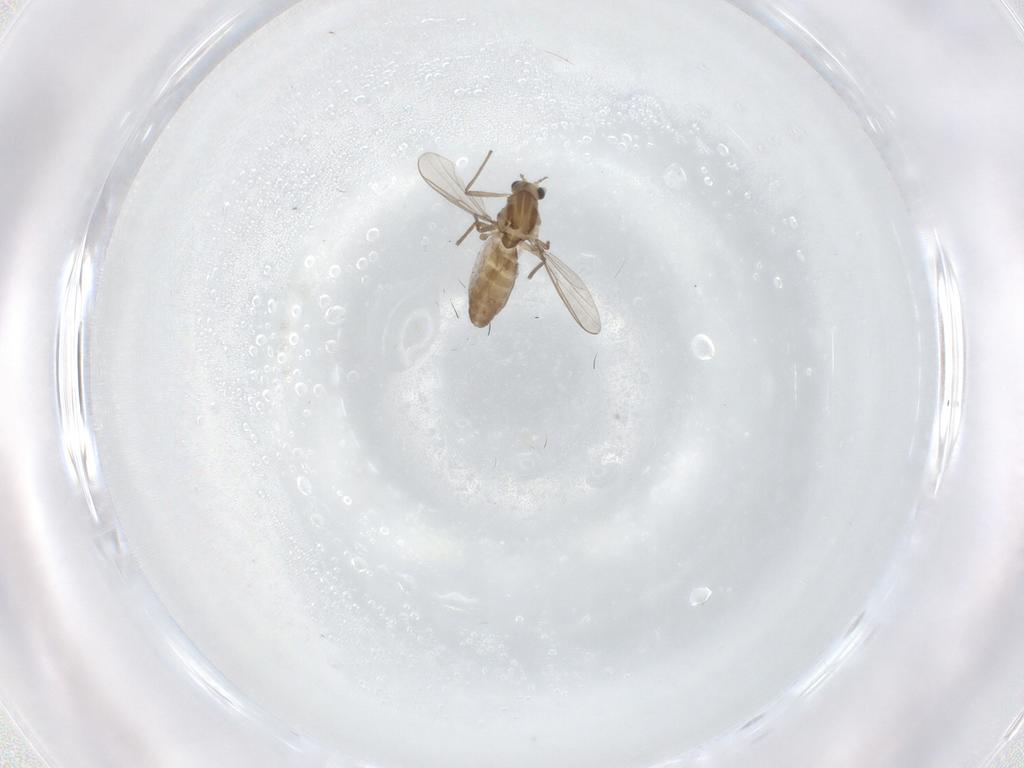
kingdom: Animalia
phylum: Arthropoda
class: Insecta
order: Diptera
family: Chironomidae
